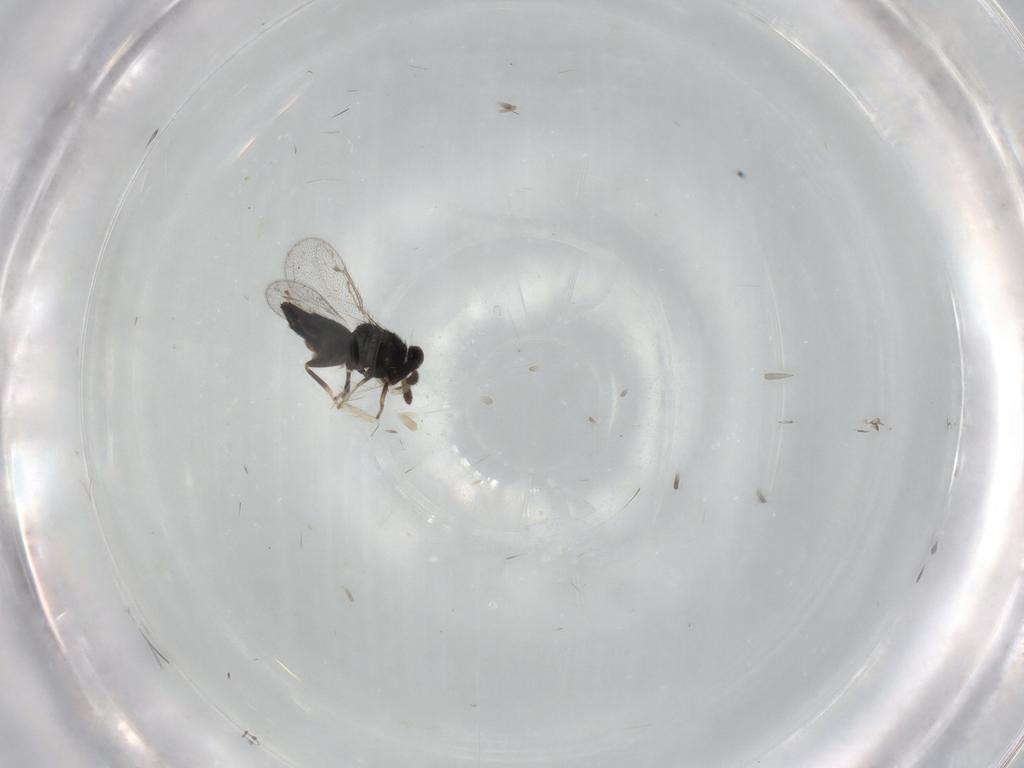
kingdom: Animalia
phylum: Arthropoda
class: Insecta
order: Hymenoptera
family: Eulophidae
